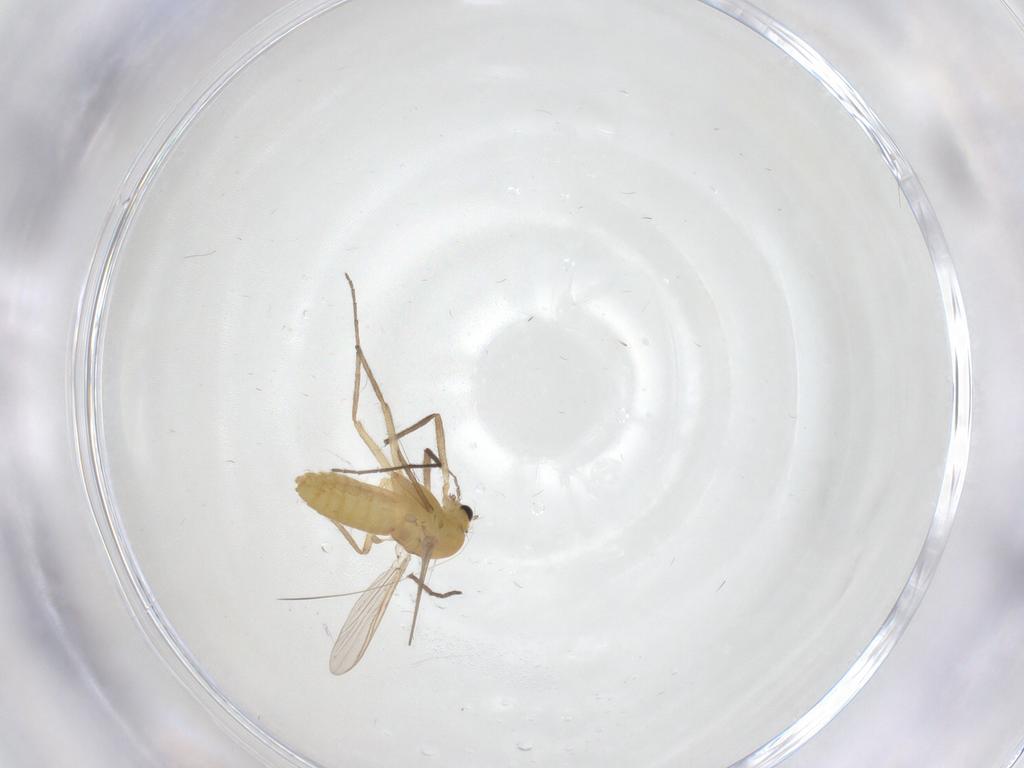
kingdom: Animalia
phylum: Arthropoda
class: Insecta
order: Diptera
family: Chironomidae
